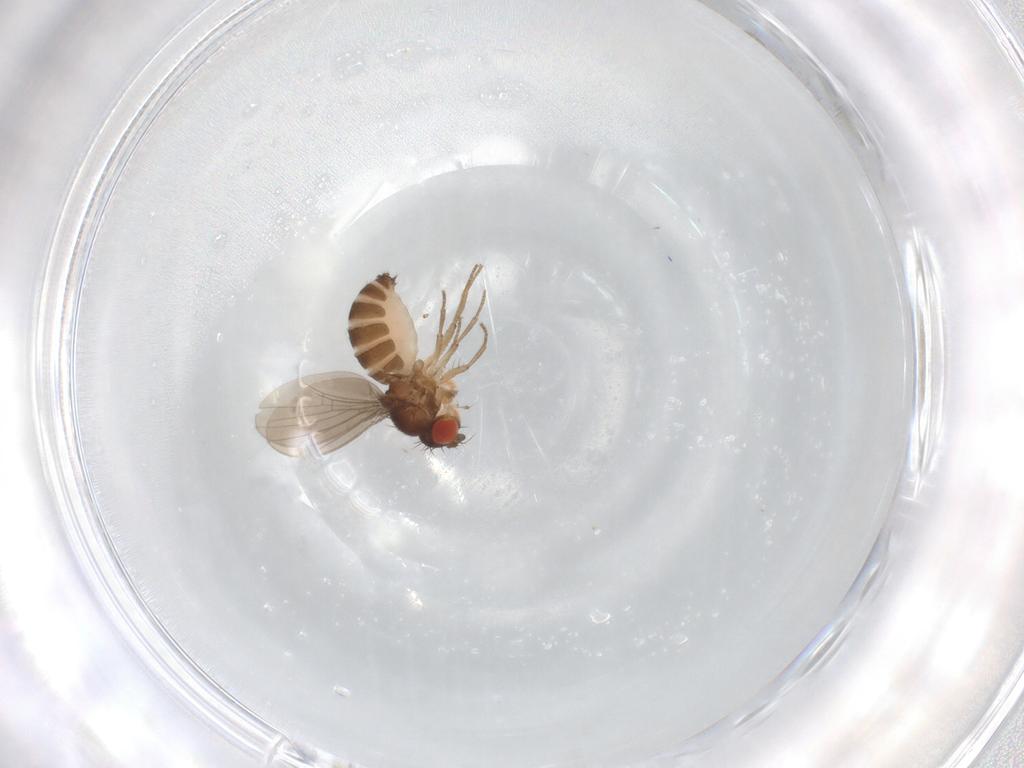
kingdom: Animalia
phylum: Arthropoda
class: Insecta
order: Diptera
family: Drosophilidae
